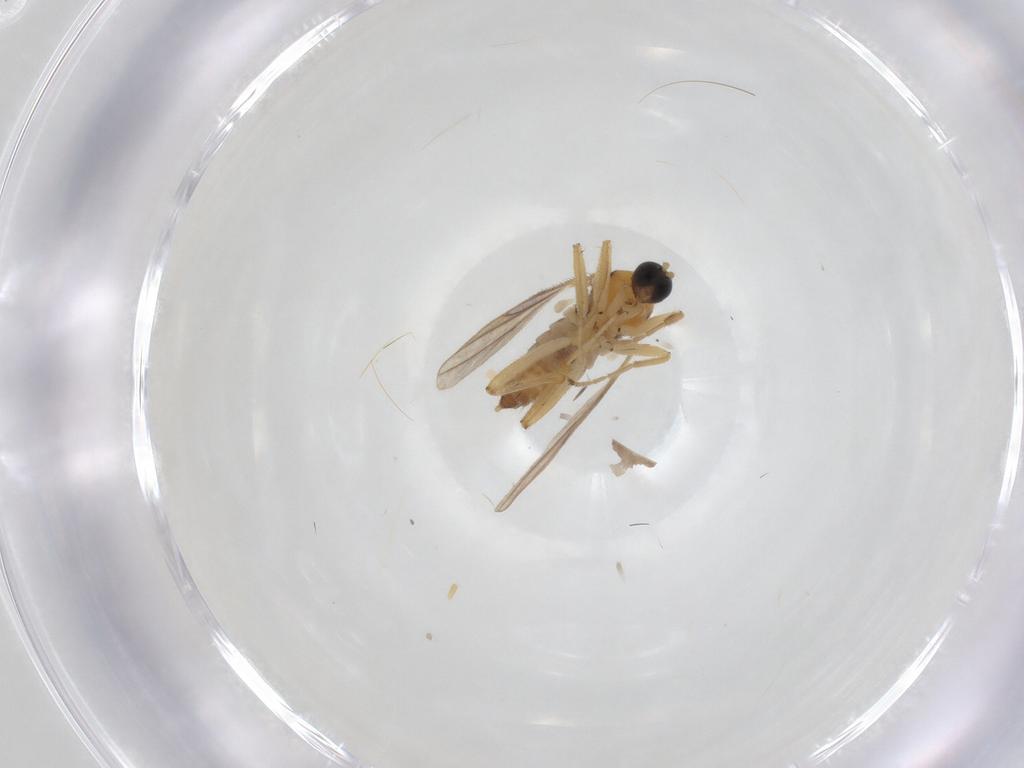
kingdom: Animalia
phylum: Arthropoda
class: Insecta
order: Diptera
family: Hybotidae
